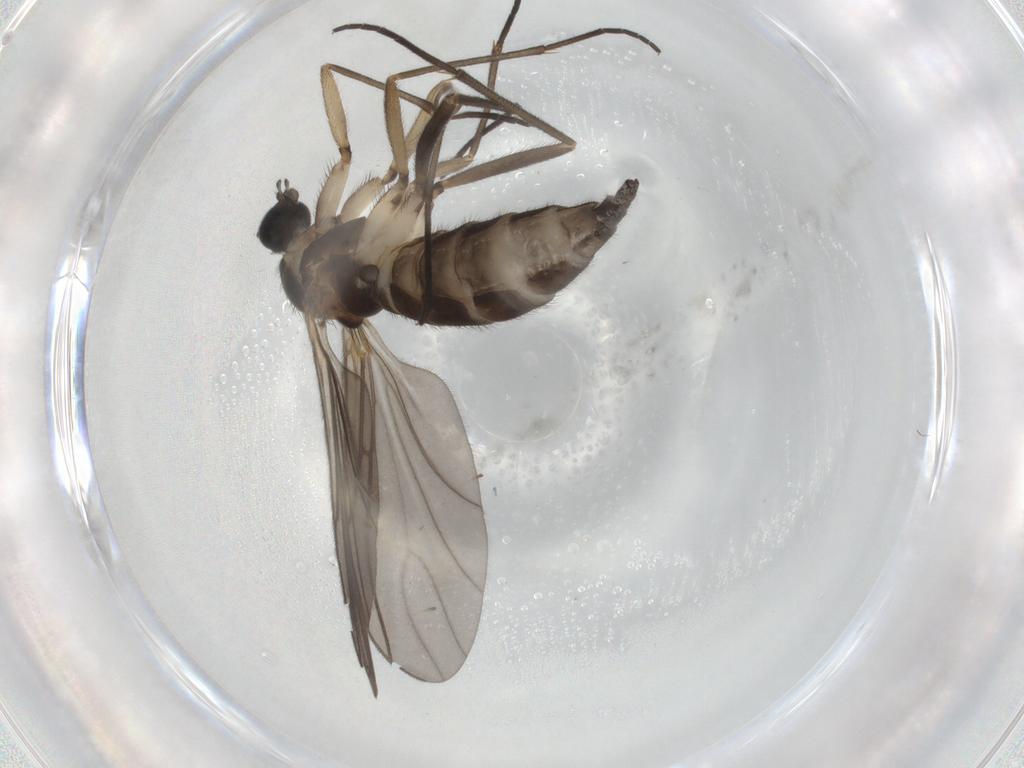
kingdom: Animalia
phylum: Arthropoda
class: Insecta
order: Diptera
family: Sciaridae
